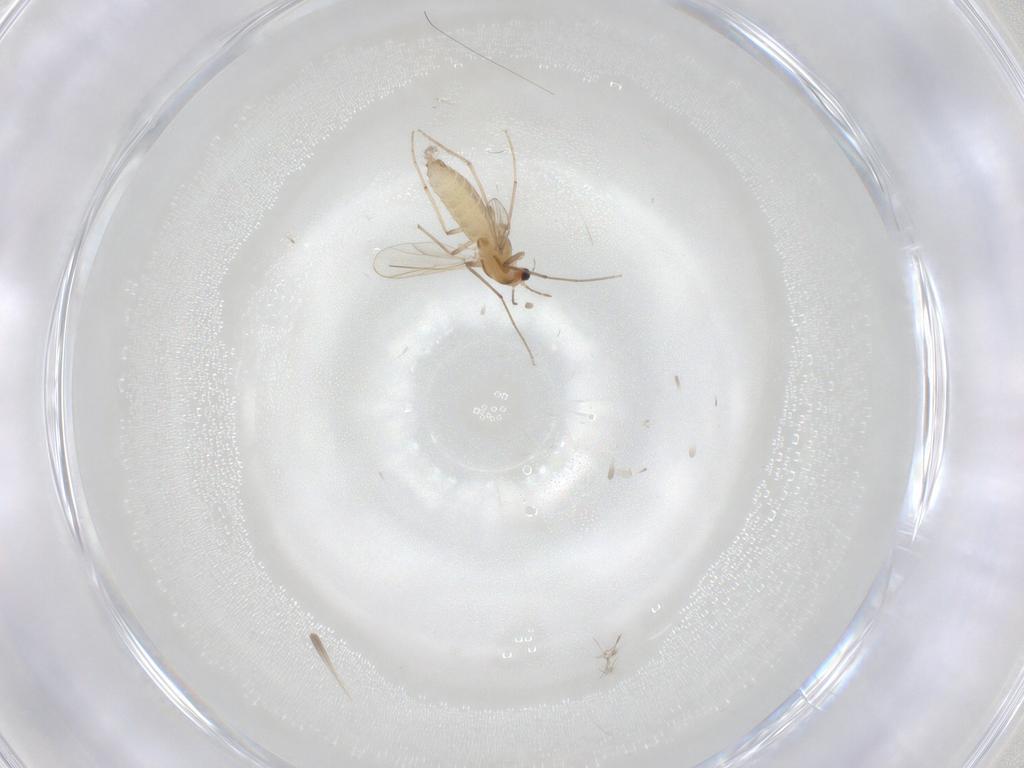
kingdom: Animalia
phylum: Arthropoda
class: Insecta
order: Diptera
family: Chironomidae
